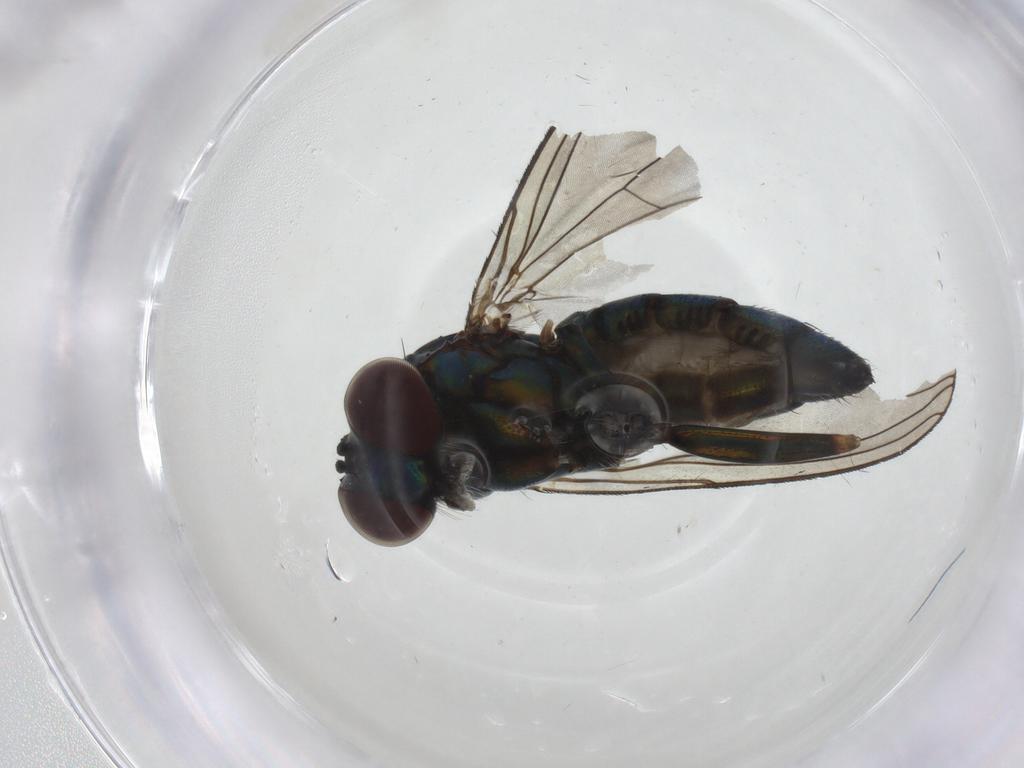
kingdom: Animalia
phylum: Arthropoda
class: Insecta
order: Diptera
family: Dolichopodidae
